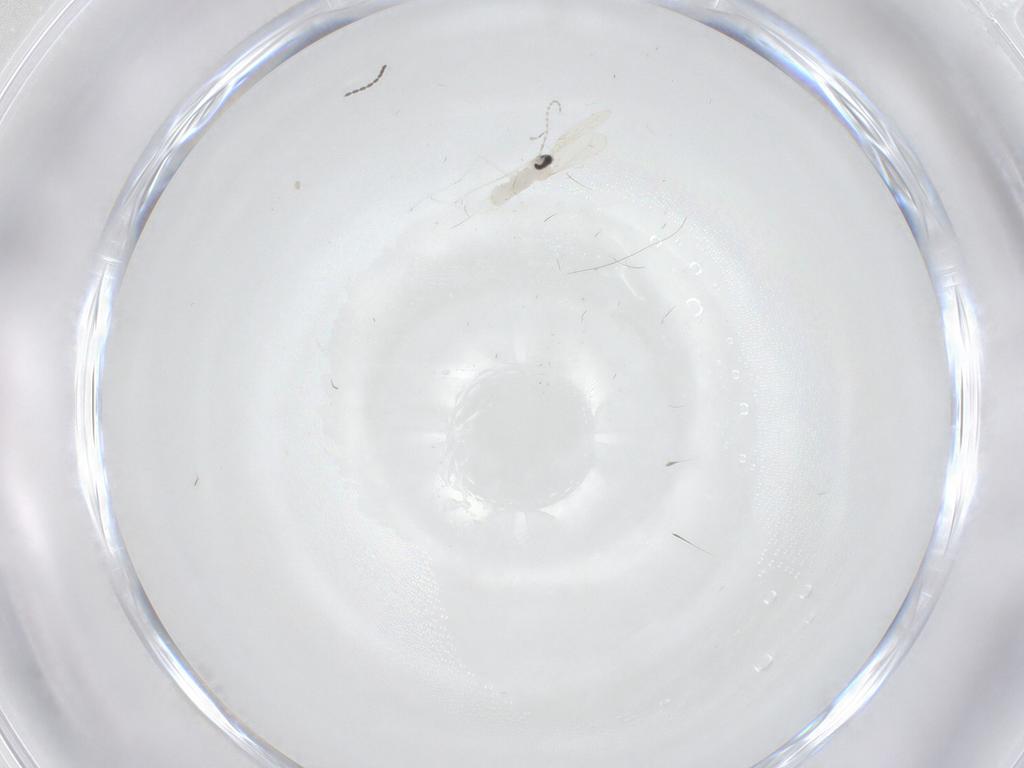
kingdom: Animalia
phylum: Arthropoda
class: Insecta
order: Diptera
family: Cecidomyiidae
